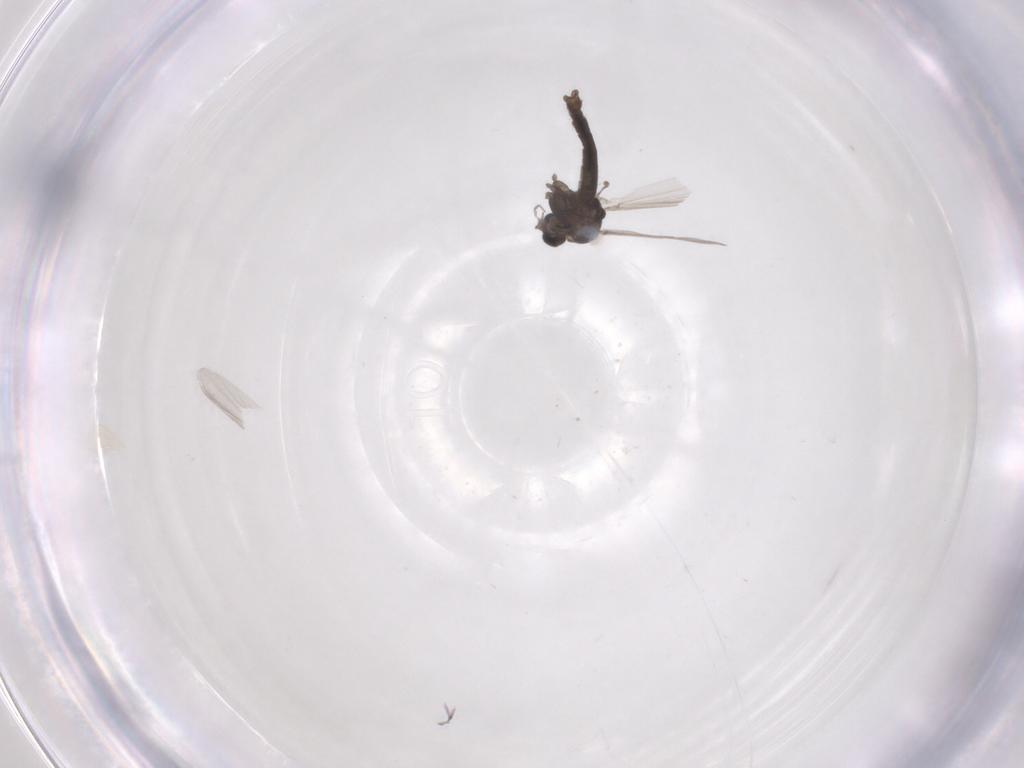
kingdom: Animalia
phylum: Arthropoda
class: Insecta
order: Diptera
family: Chironomidae
